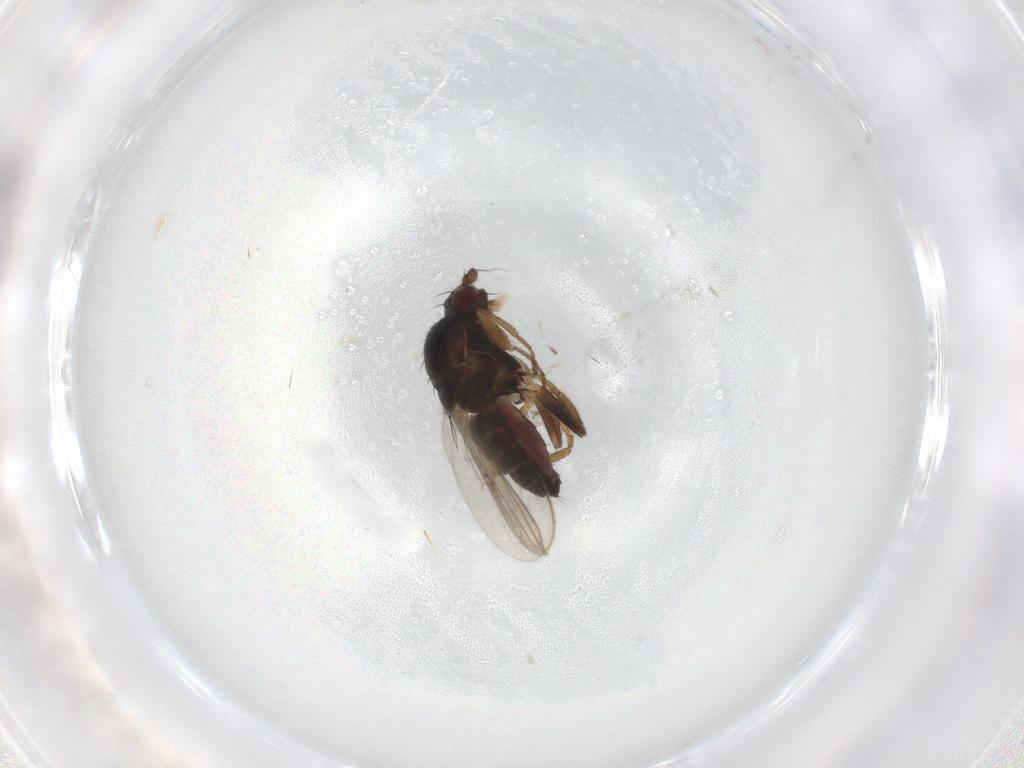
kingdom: Animalia
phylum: Arthropoda
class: Insecta
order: Diptera
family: Sphaeroceridae
